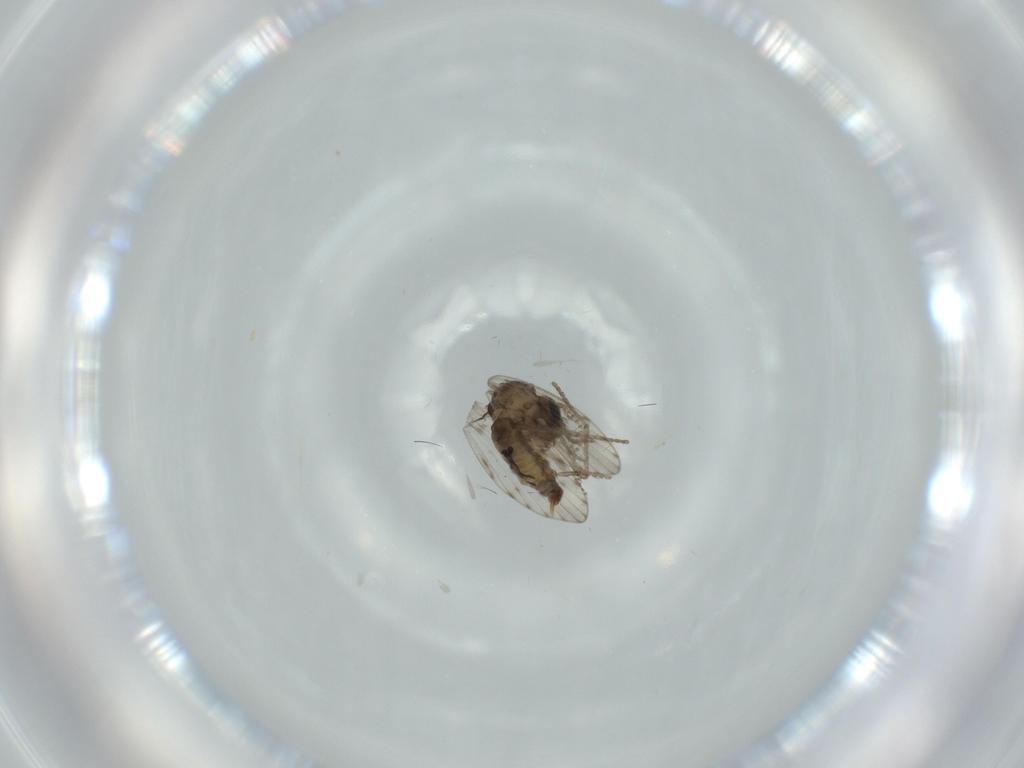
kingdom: Animalia
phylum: Arthropoda
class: Insecta
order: Diptera
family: Psychodidae
